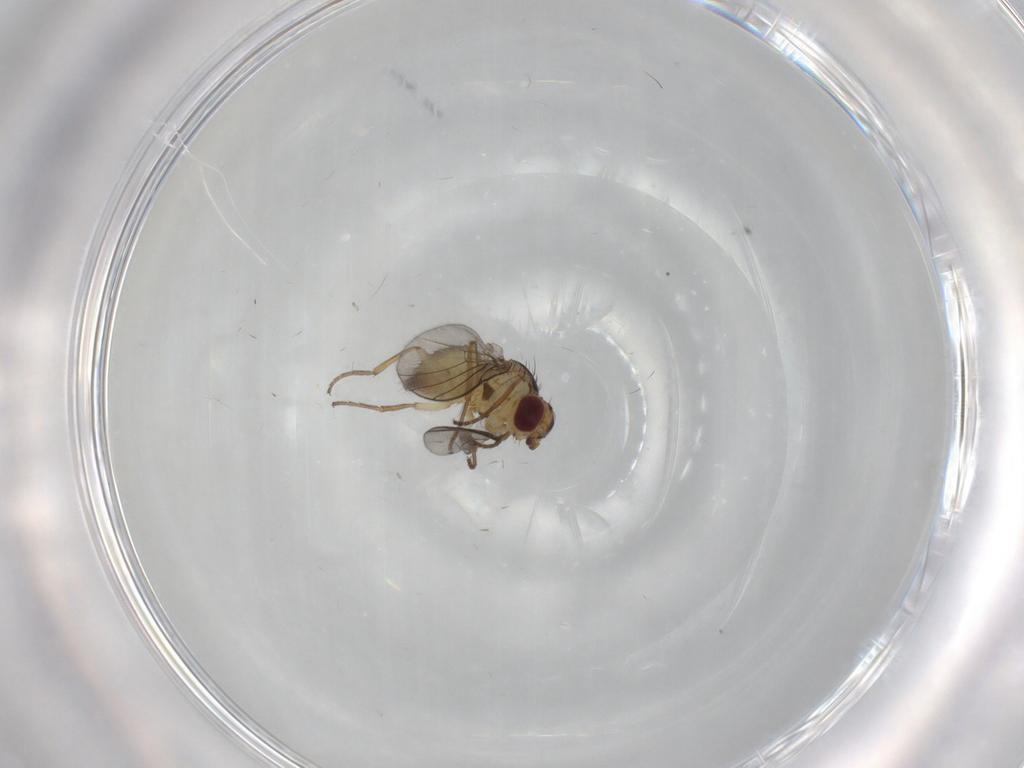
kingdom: Animalia
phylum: Arthropoda
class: Insecta
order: Diptera
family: Agromyzidae
